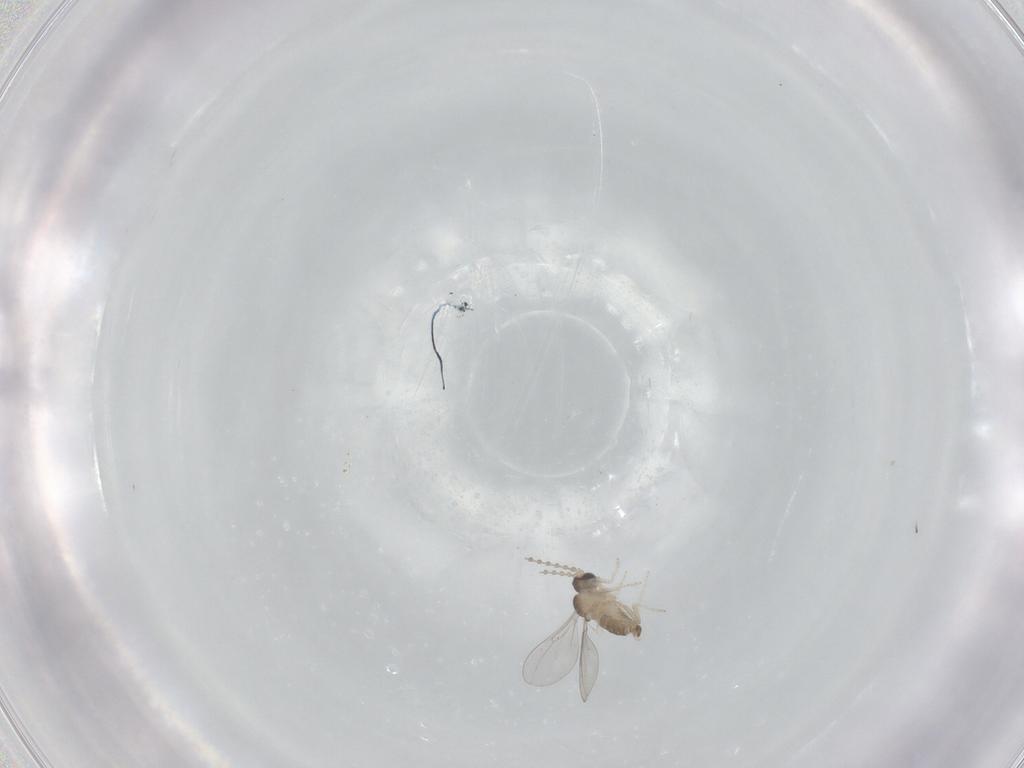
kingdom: Animalia
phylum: Arthropoda
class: Insecta
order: Diptera
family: Cecidomyiidae
